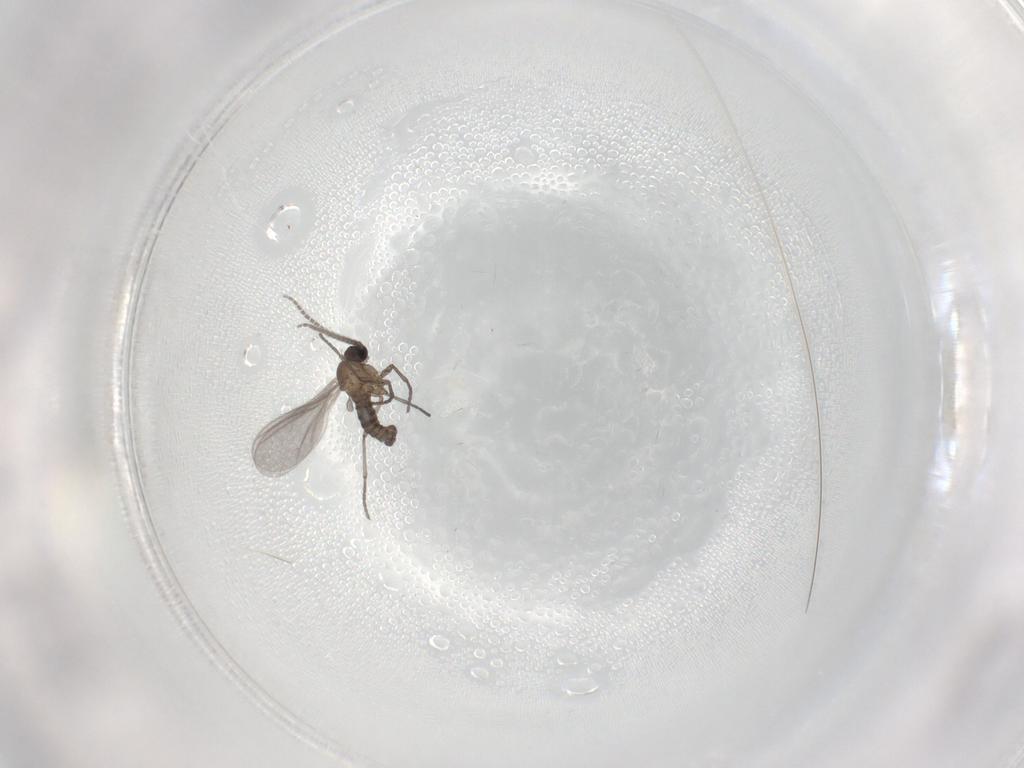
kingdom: Animalia
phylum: Arthropoda
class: Insecta
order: Diptera
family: Sciaridae
